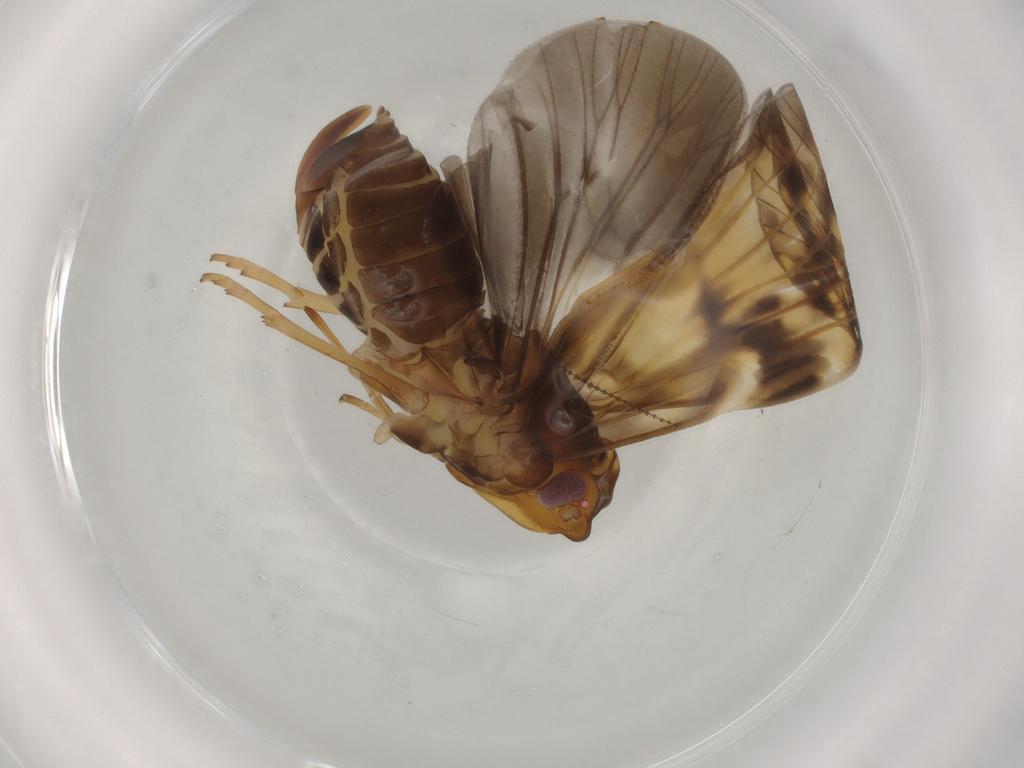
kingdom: Animalia
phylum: Arthropoda
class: Insecta
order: Hemiptera
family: Cixiidae
